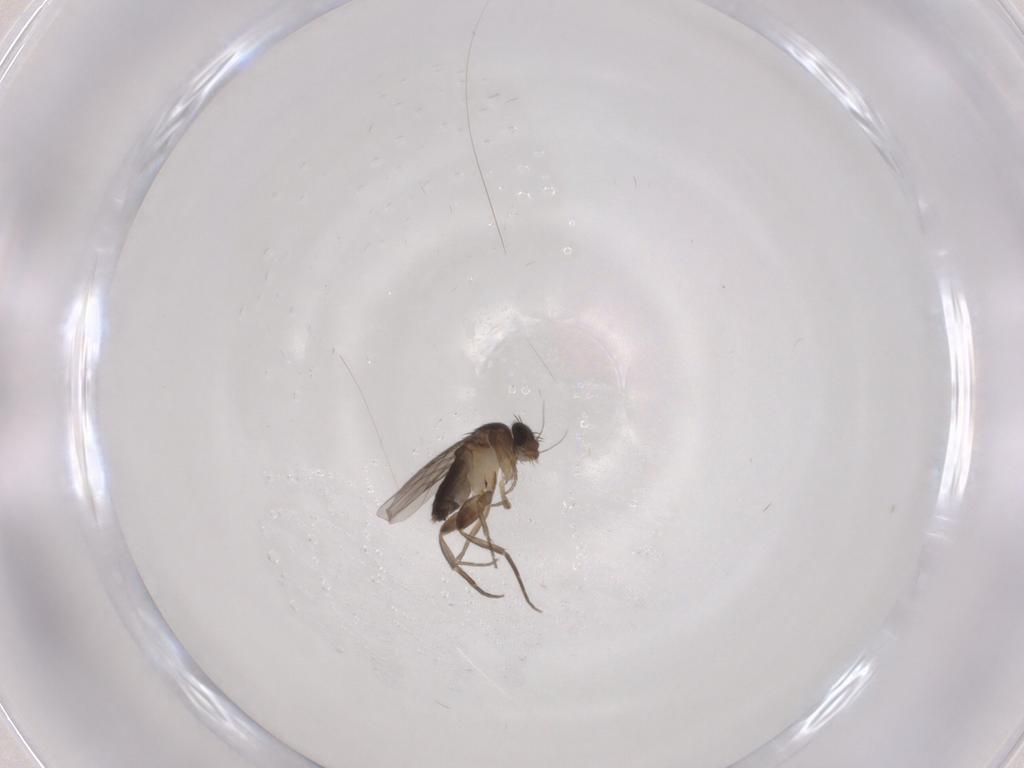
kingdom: Animalia
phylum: Arthropoda
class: Insecta
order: Diptera
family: Phoridae
